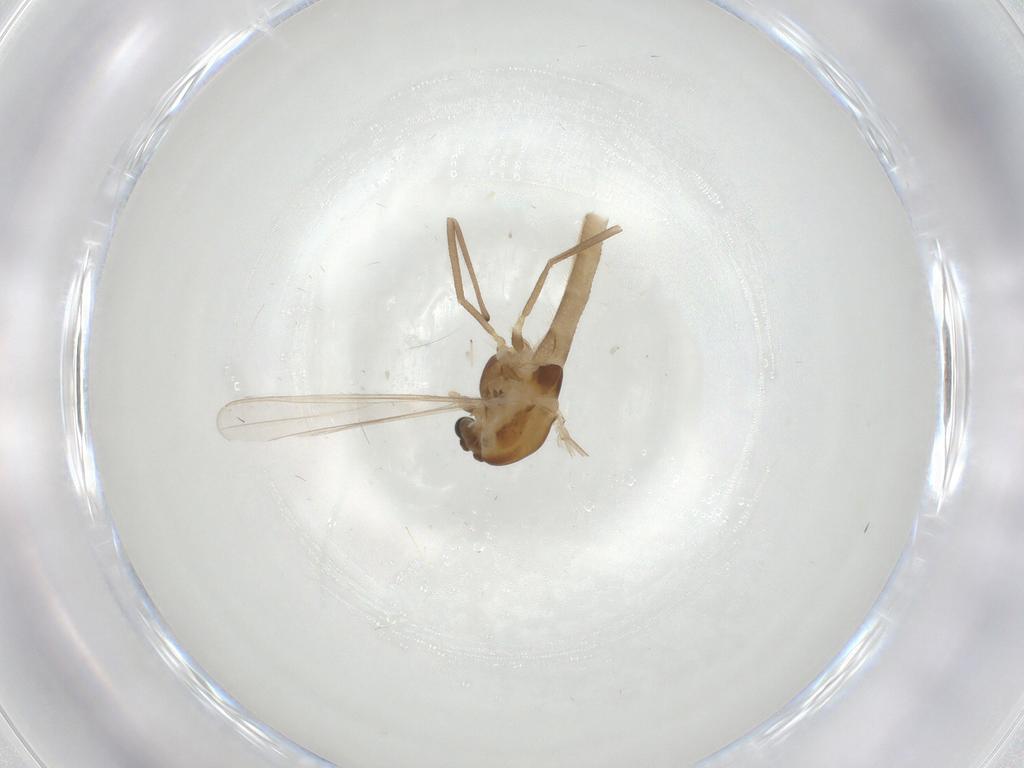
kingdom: Animalia
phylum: Arthropoda
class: Insecta
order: Diptera
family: Chironomidae
